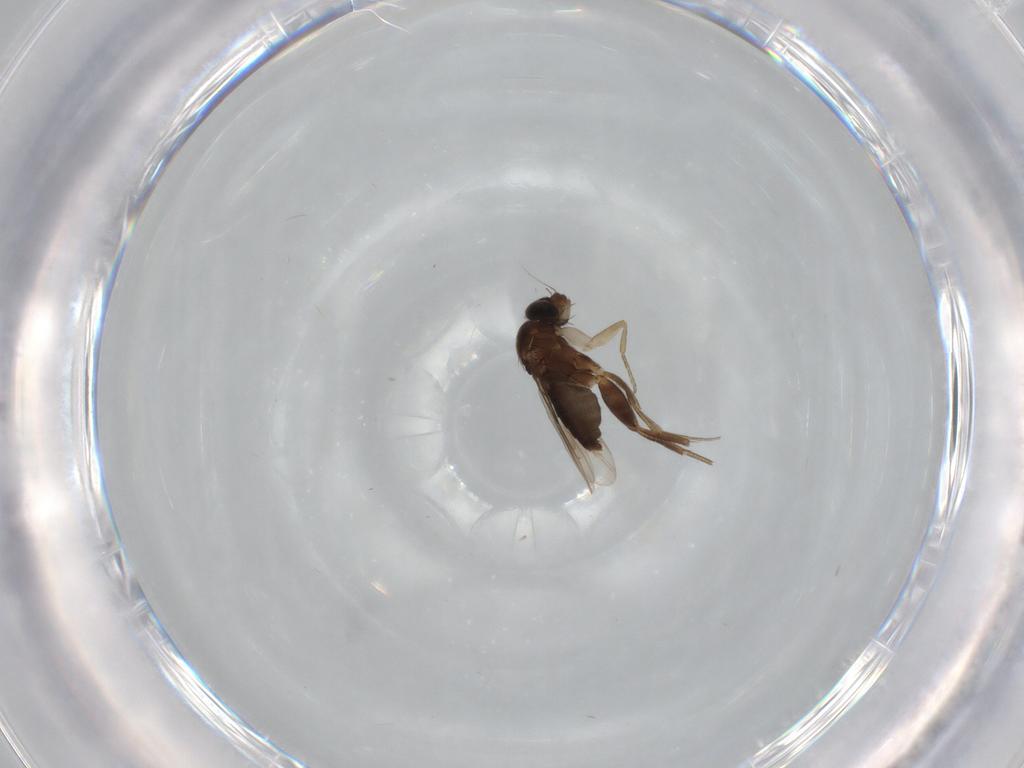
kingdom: Animalia
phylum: Arthropoda
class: Insecta
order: Diptera
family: Phoridae
